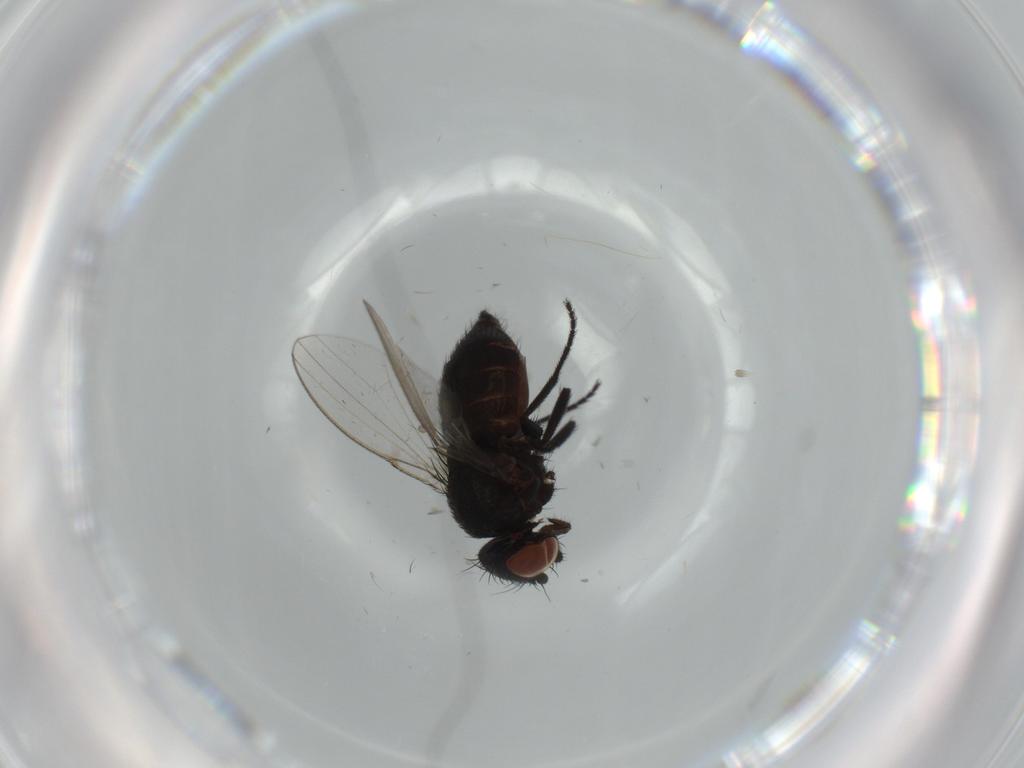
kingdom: Animalia
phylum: Arthropoda
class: Insecta
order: Diptera
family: Milichiidae
